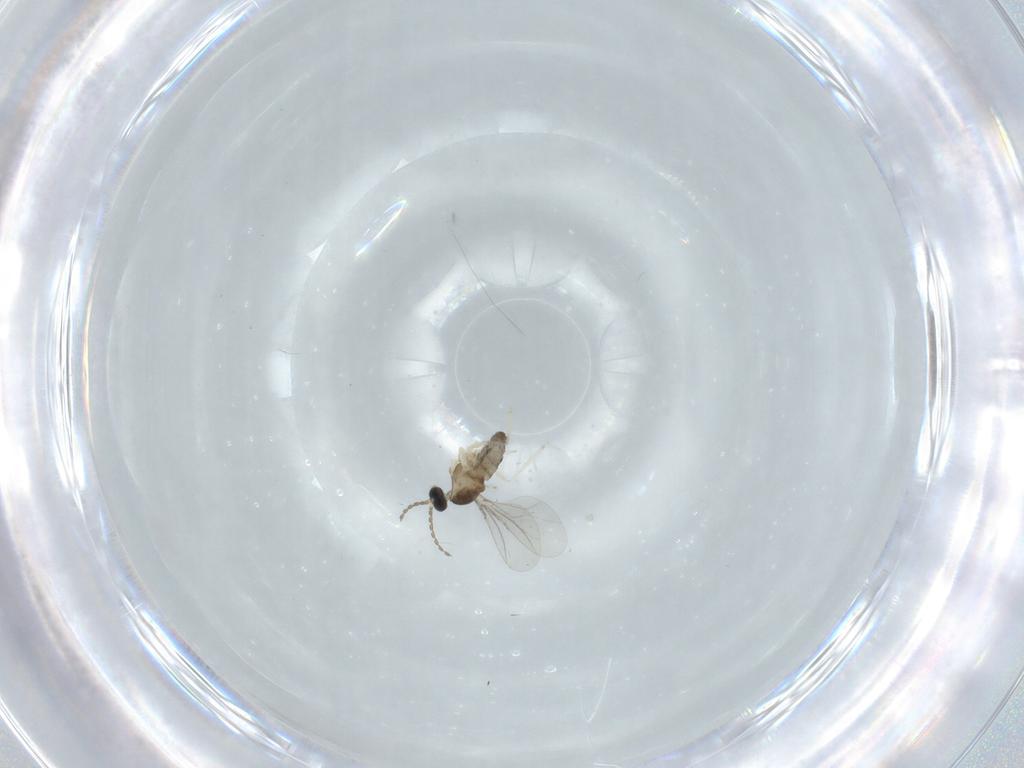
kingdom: Animalia
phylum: Arthropoda
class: Insecta
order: Diptera
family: Cecidomyiidae
